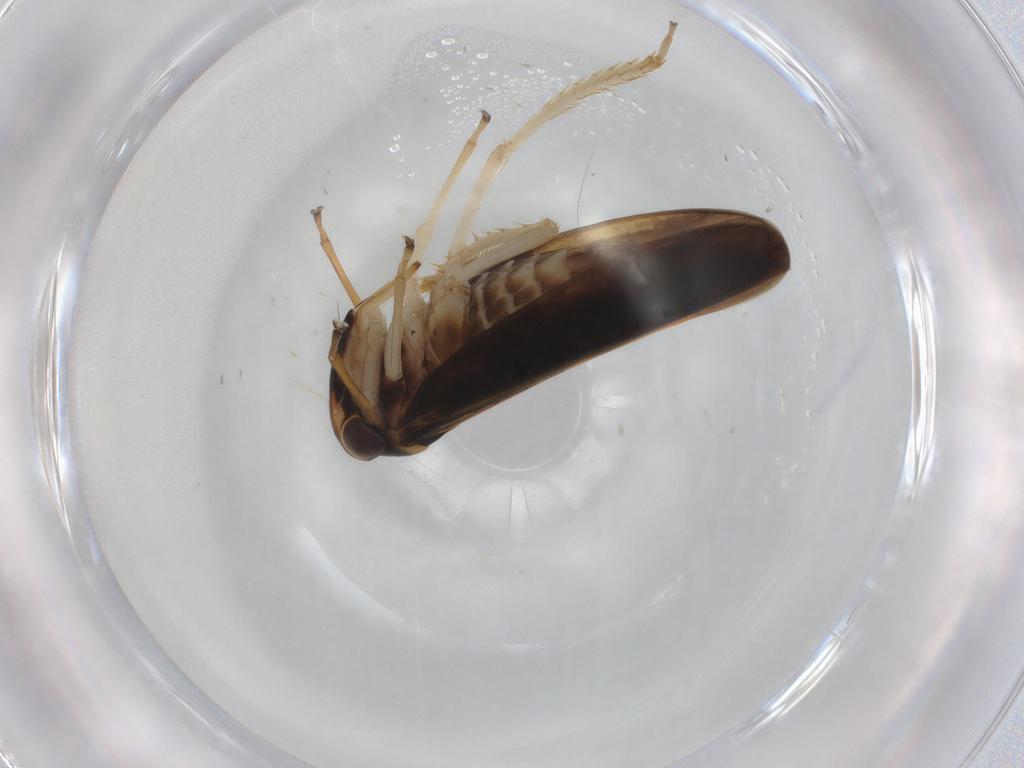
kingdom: Animalia
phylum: Arthropoda
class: Insecta
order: Hemiptera
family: Cicadellidae
